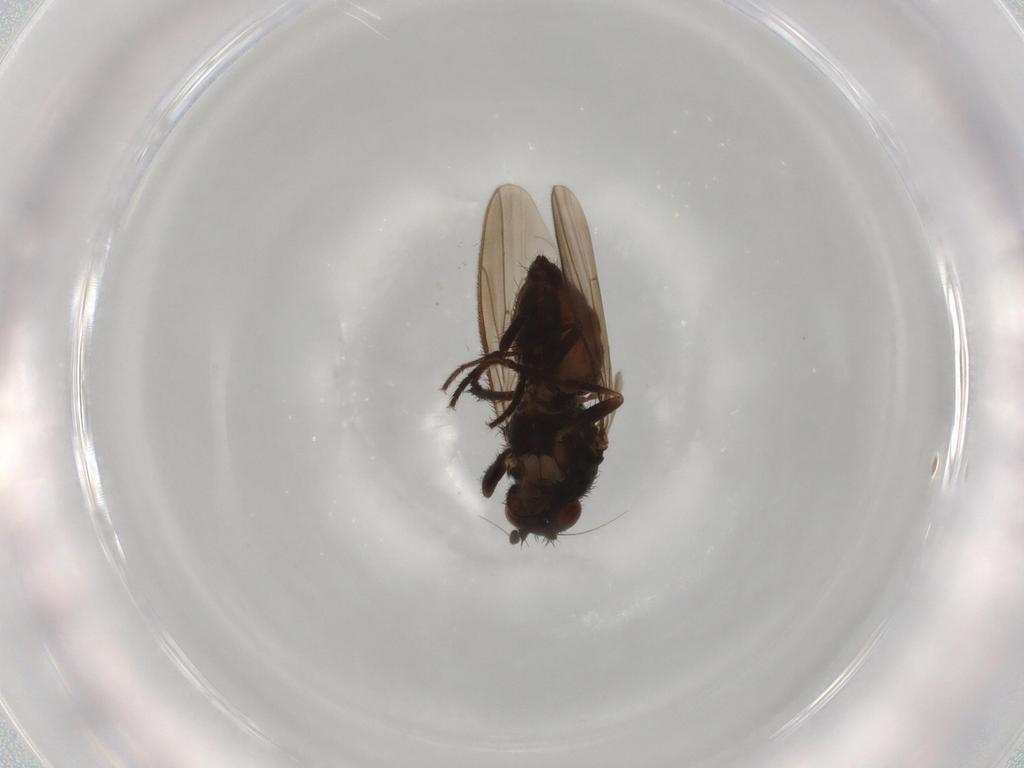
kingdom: Animalia
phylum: Arthropoda
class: Insecta
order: Diptera
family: Sphaeroceridae
